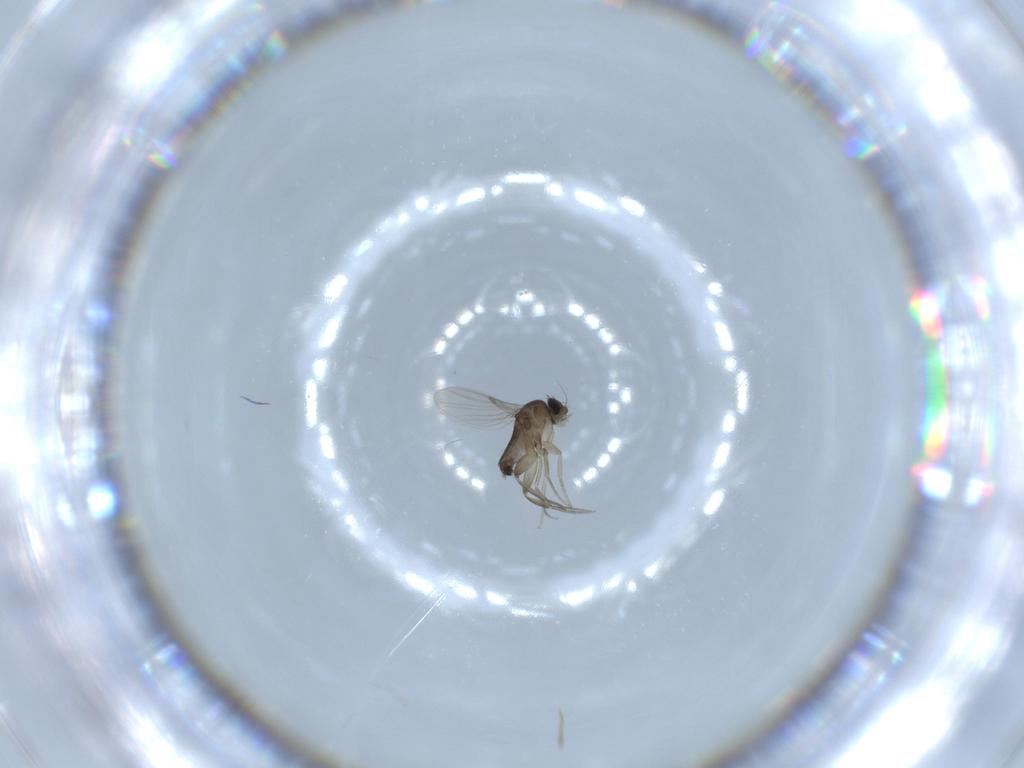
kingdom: Animalia
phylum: Arthropoda
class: Insecta
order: Diptera
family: Phoridae
